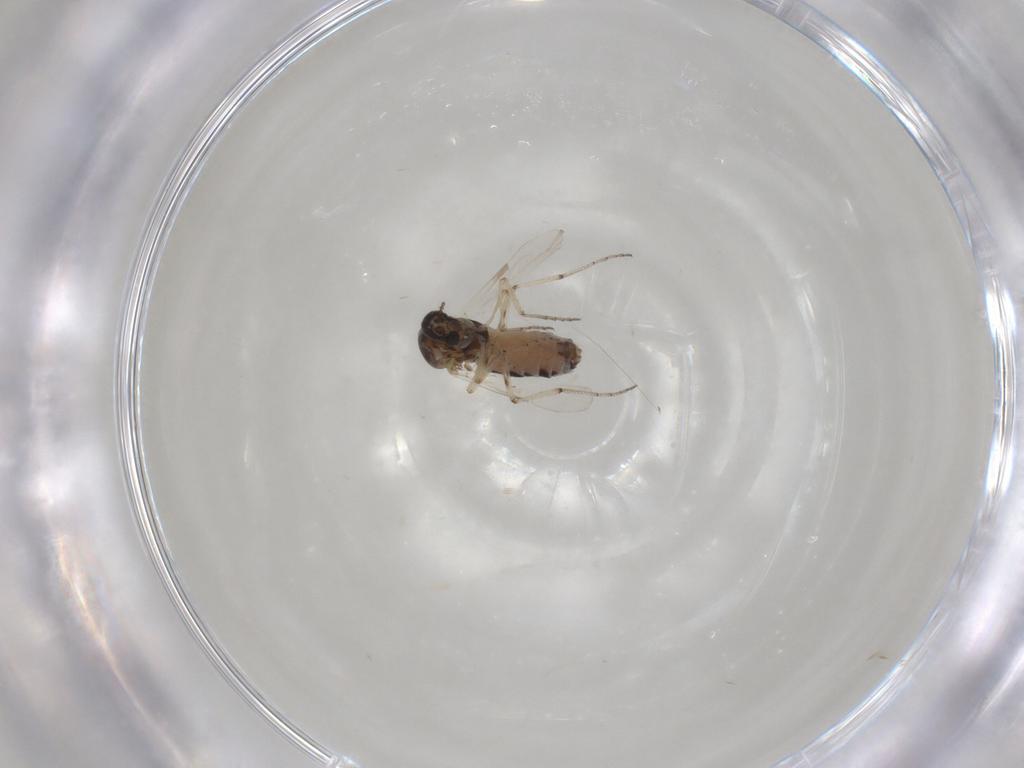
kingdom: Animalia
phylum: Arthropoda
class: Insecta
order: Diptera
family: Ceratopogonidae
